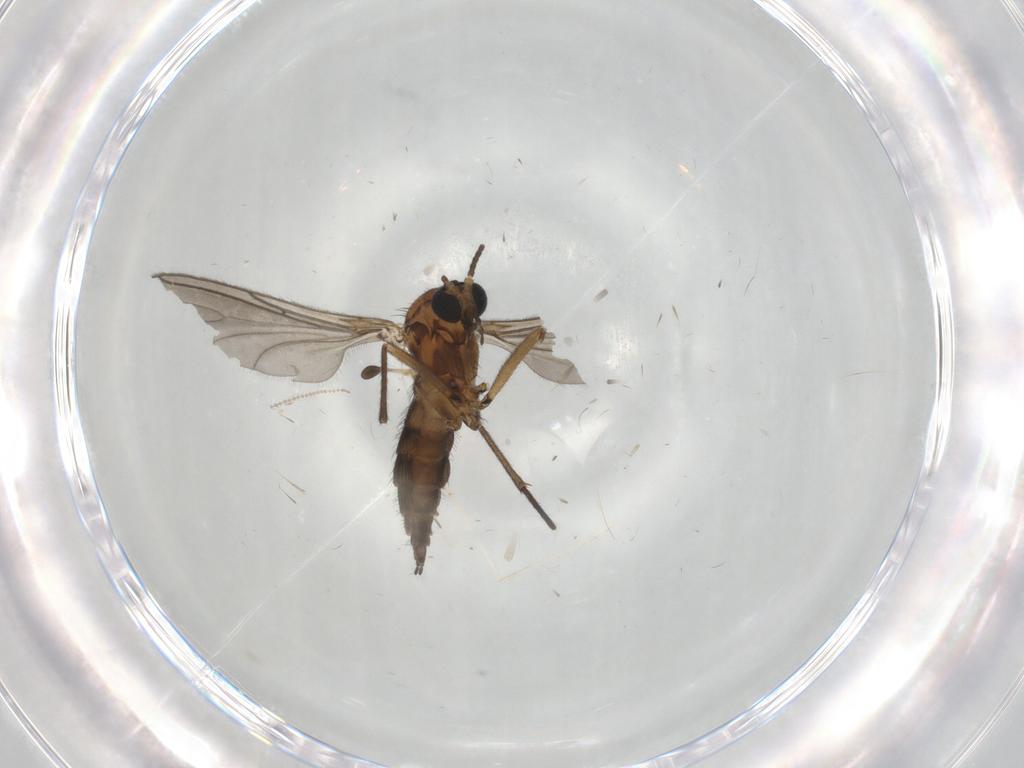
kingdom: Animalia
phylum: Arthropoda
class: Insecta
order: Diptera
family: Sciaridae
